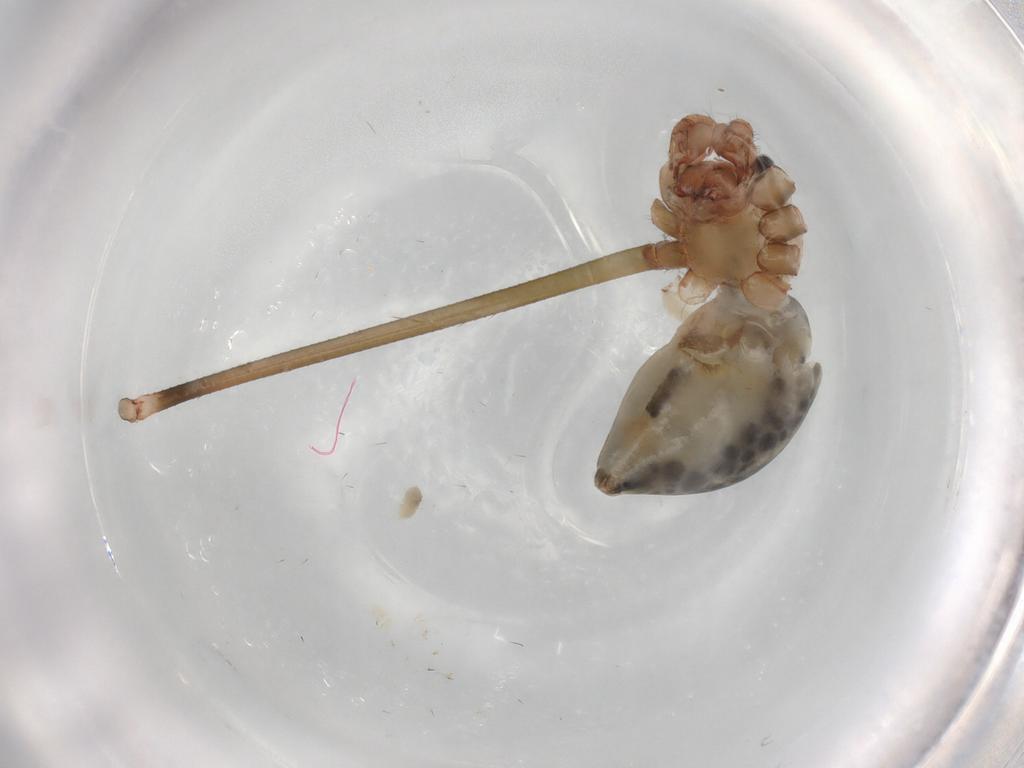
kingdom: Animalia
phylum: Arthropoda
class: Arachnida
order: Araneae
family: Pholcidae
